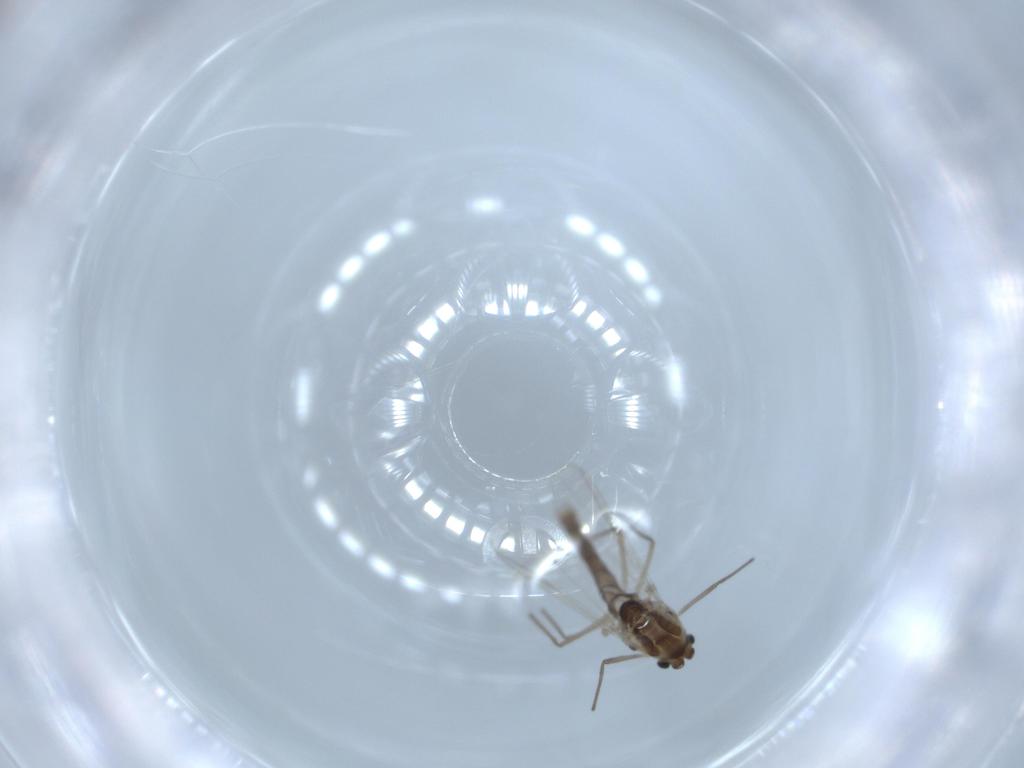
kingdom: Animalia
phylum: Arthropoda
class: Insecta
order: Diptera
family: Chironomidae
